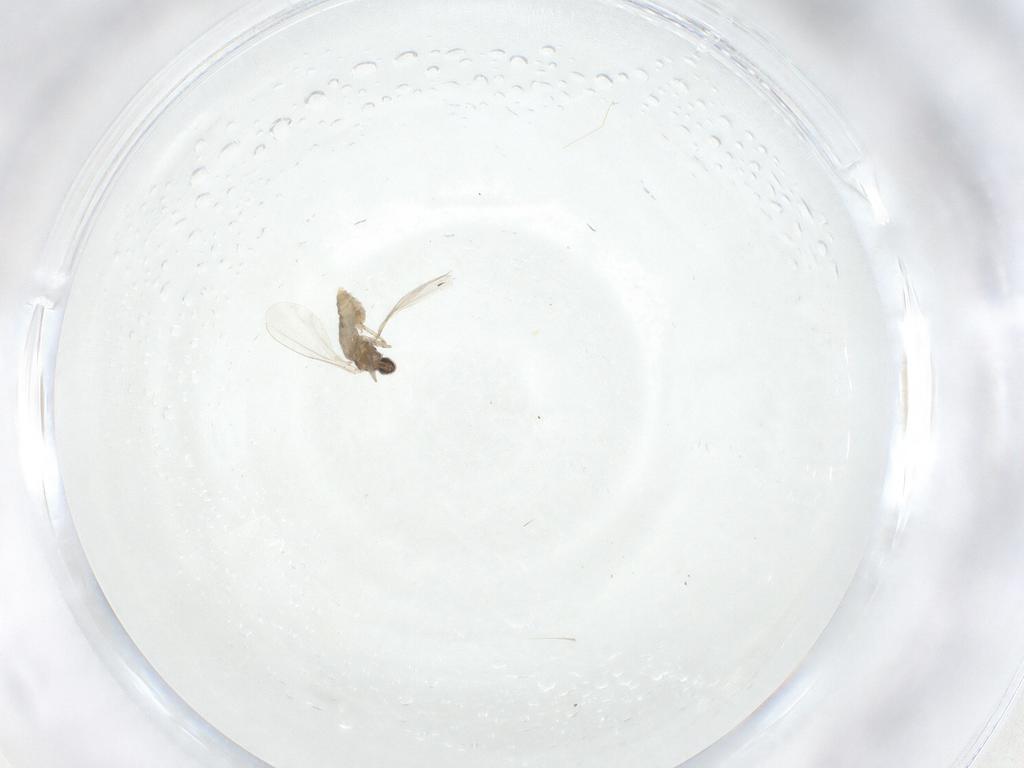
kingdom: Animalia
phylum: Arthropoda
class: Insecta
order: Diptera
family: Cecidomyiidae
